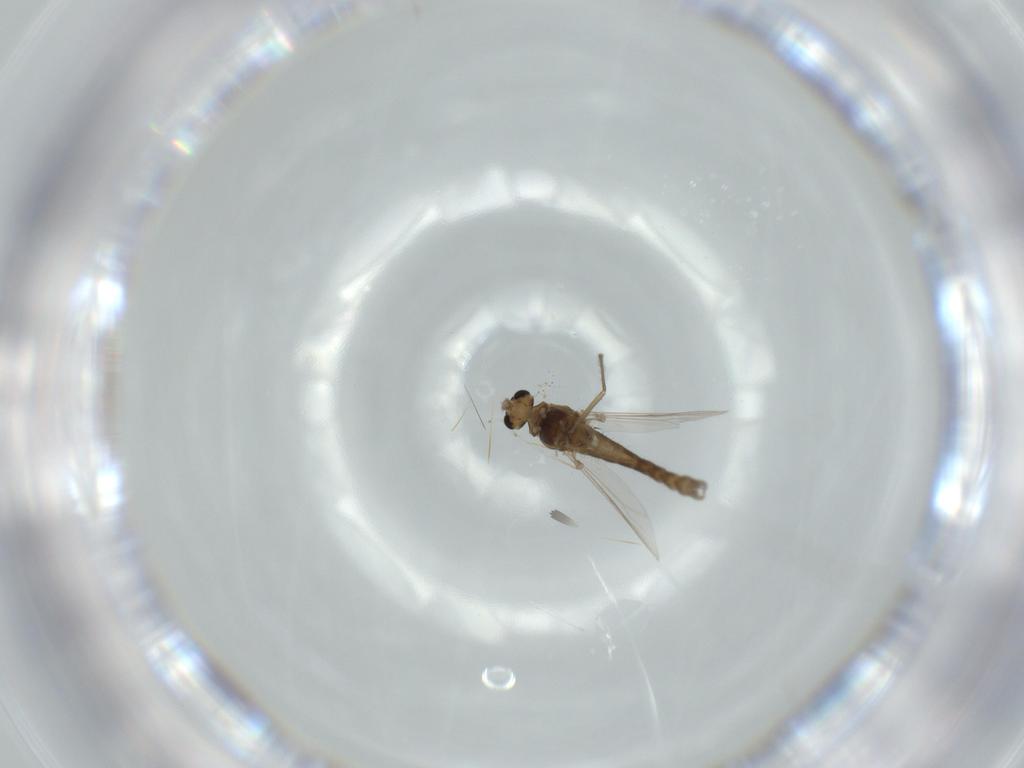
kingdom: Animalia
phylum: Arthropoda
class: Insecta
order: Diptera
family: Chironomidae
